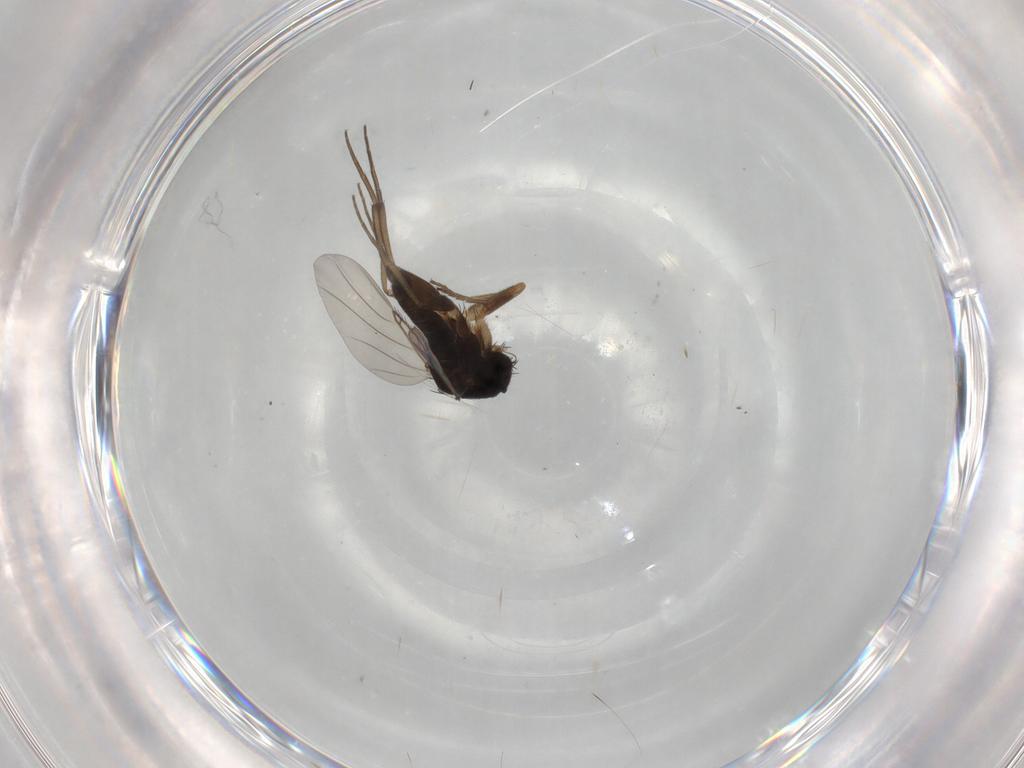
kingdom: Animalia
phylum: Arthropoda
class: Insecta
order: Diptera
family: Phoridae
